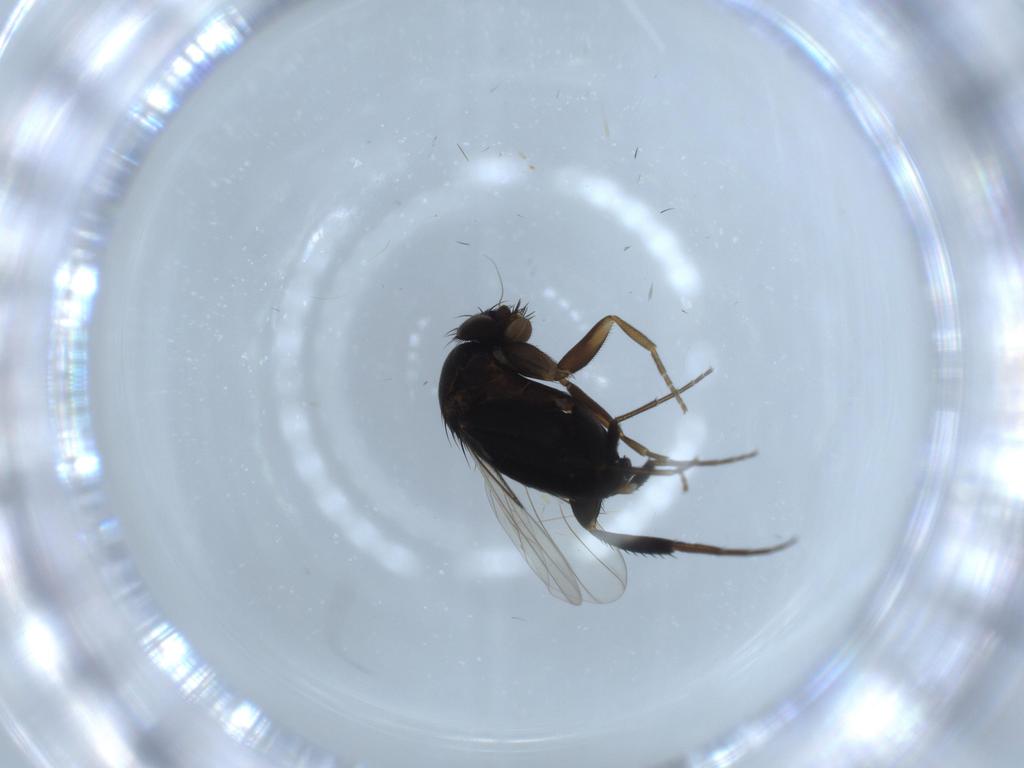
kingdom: Animalia
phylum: Arthropoda
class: Insecta
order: Diptera
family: Phoridae
